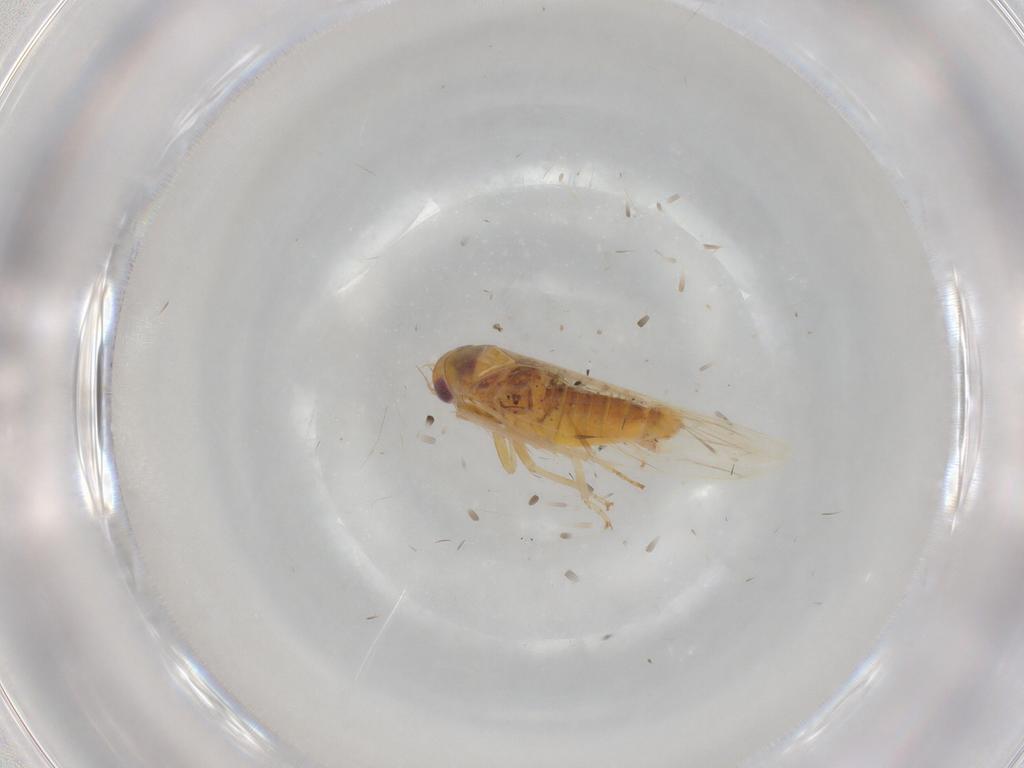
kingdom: Animalia
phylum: Arthropoda
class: Insecta
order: Hemiptera
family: Cicadellidae
